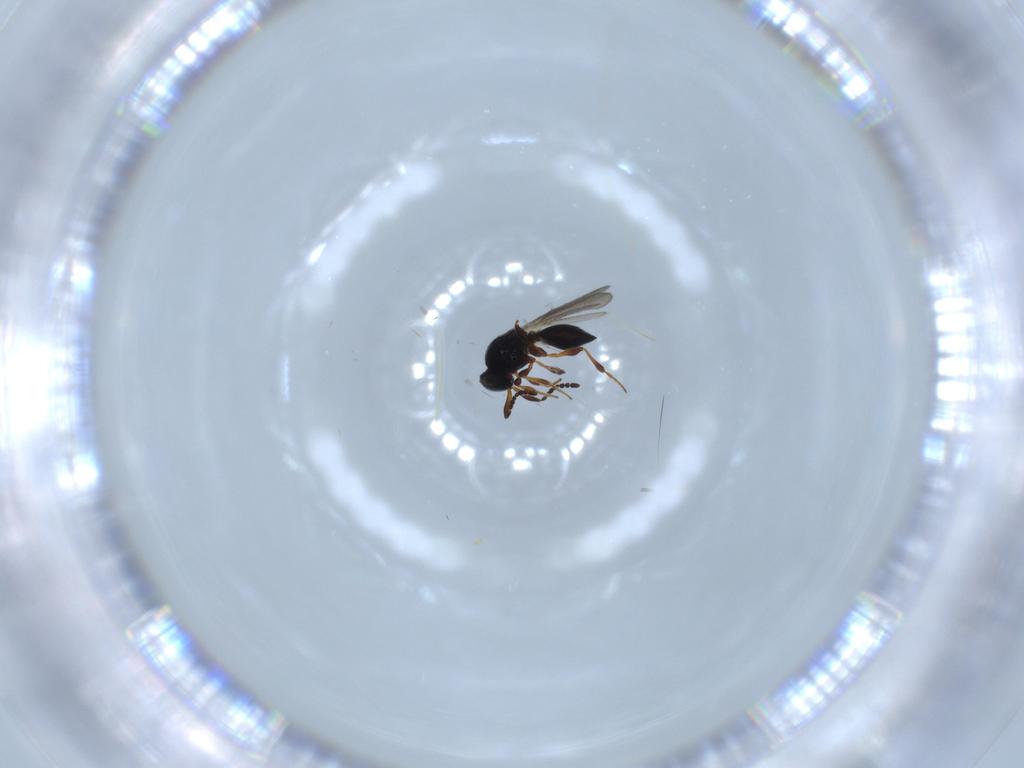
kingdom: Animalia
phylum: Arthropoda
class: Insecta
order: Hymenoptera
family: Platygastridae
